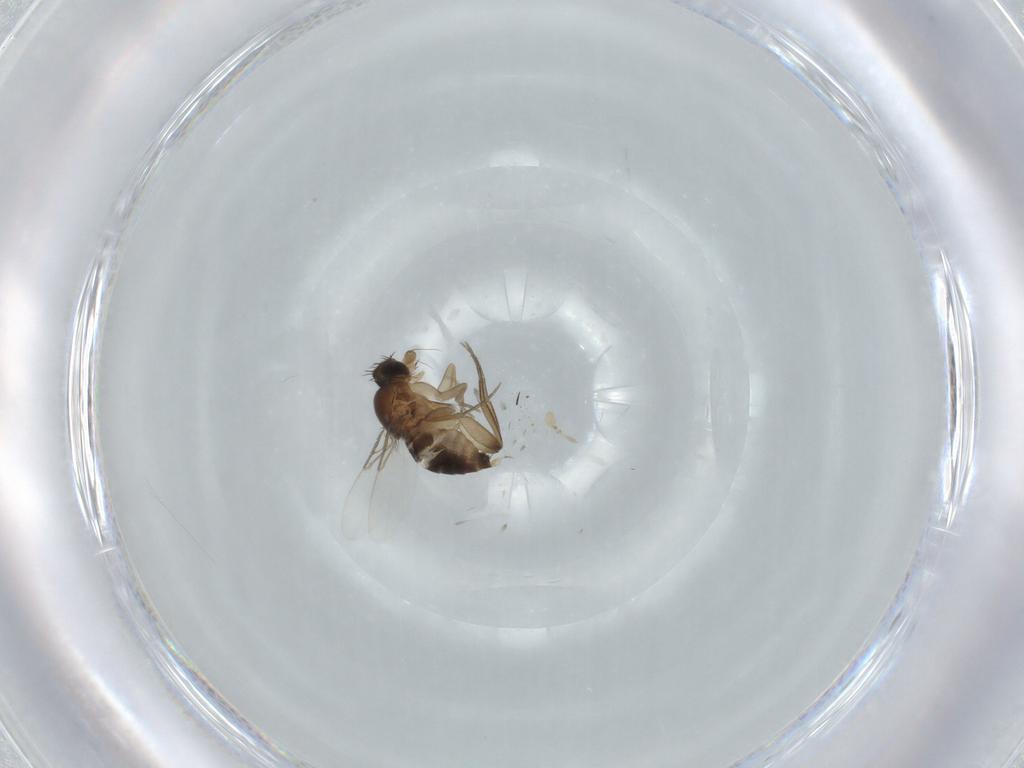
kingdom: Animalia
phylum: Arthropoda
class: Insecta
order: Diptera
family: Phoridae
